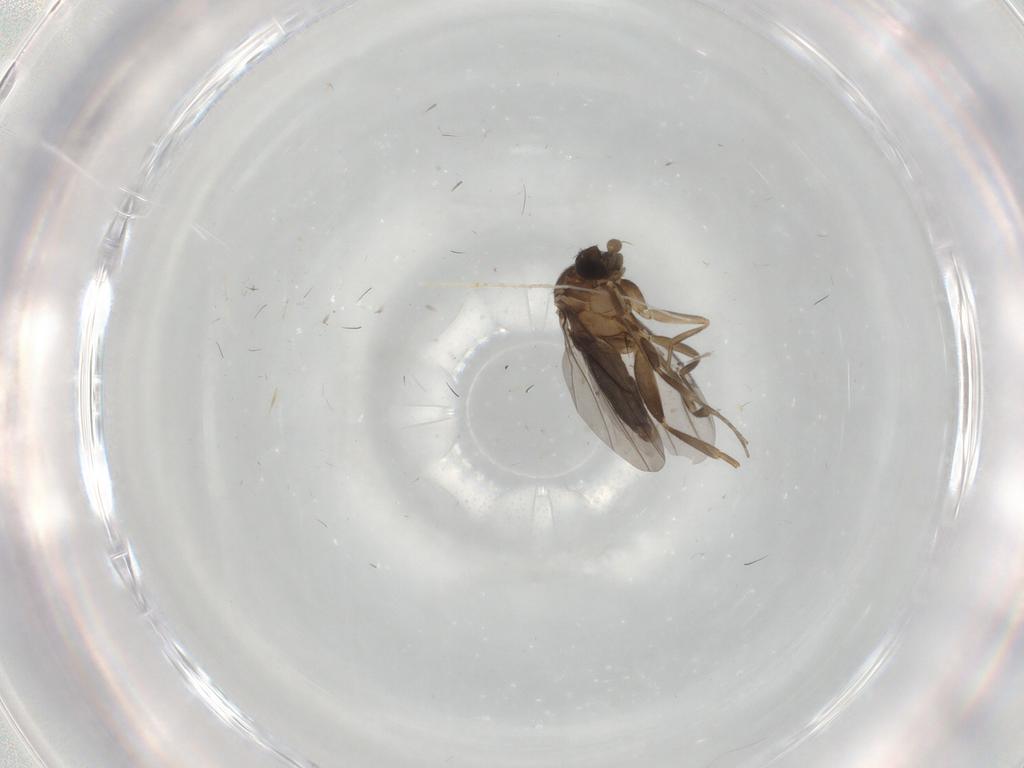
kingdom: Animalia
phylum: Arthropoda
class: Insecta
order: Diptera
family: Cecidomyiidae
